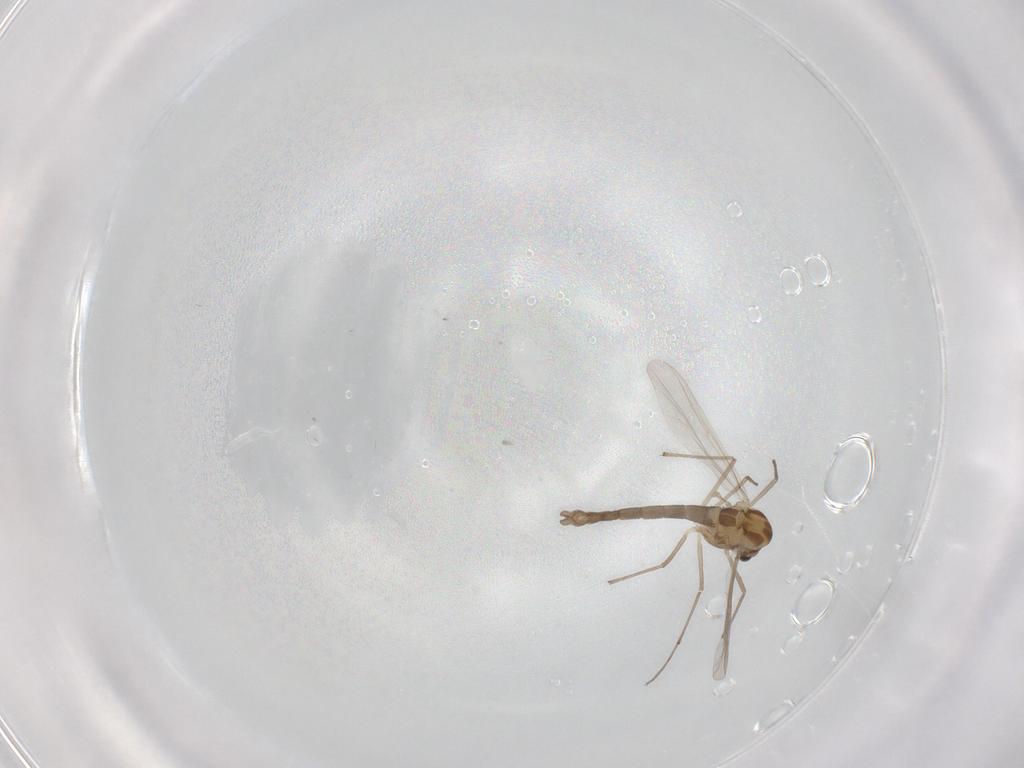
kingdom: Animalia
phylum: Arthropoda
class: Insecta
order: Diptera
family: Chironomidae
